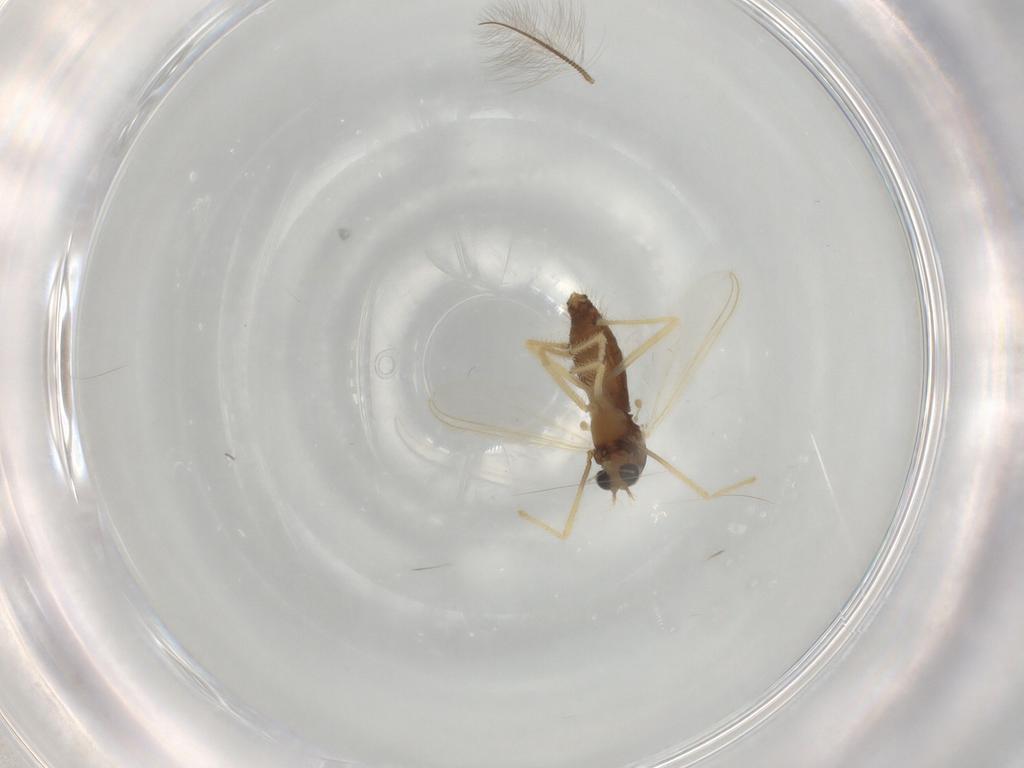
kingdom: Animalia
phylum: Arthropoda
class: Insecta
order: Diptera
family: Chironomidae
